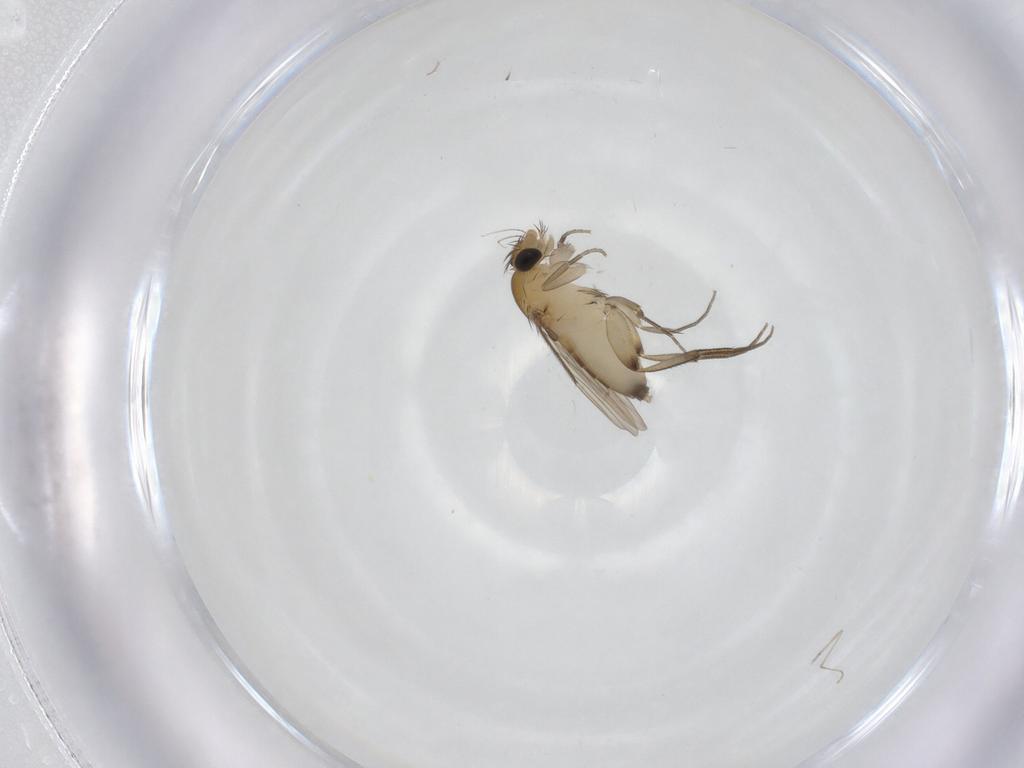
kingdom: Animalia
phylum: Arthropoda
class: Insecta
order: Diptera
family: Phoridae
